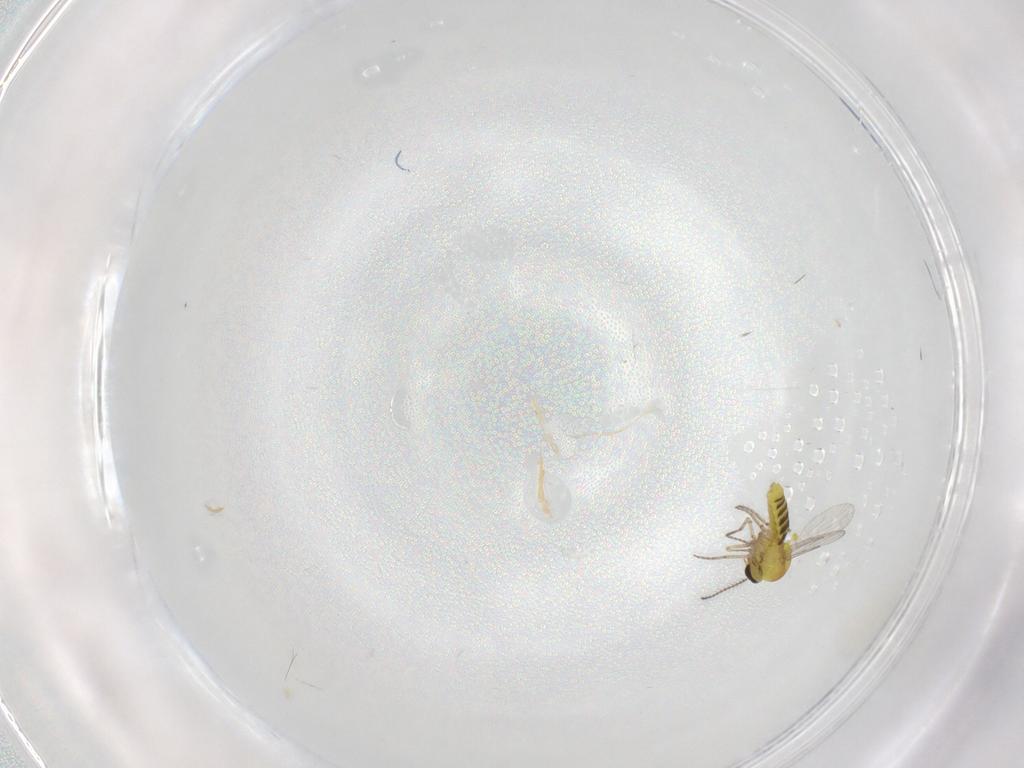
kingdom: Animalia
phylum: Arthropoda
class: Insecta
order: Diptera
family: Ceratopogonidae
